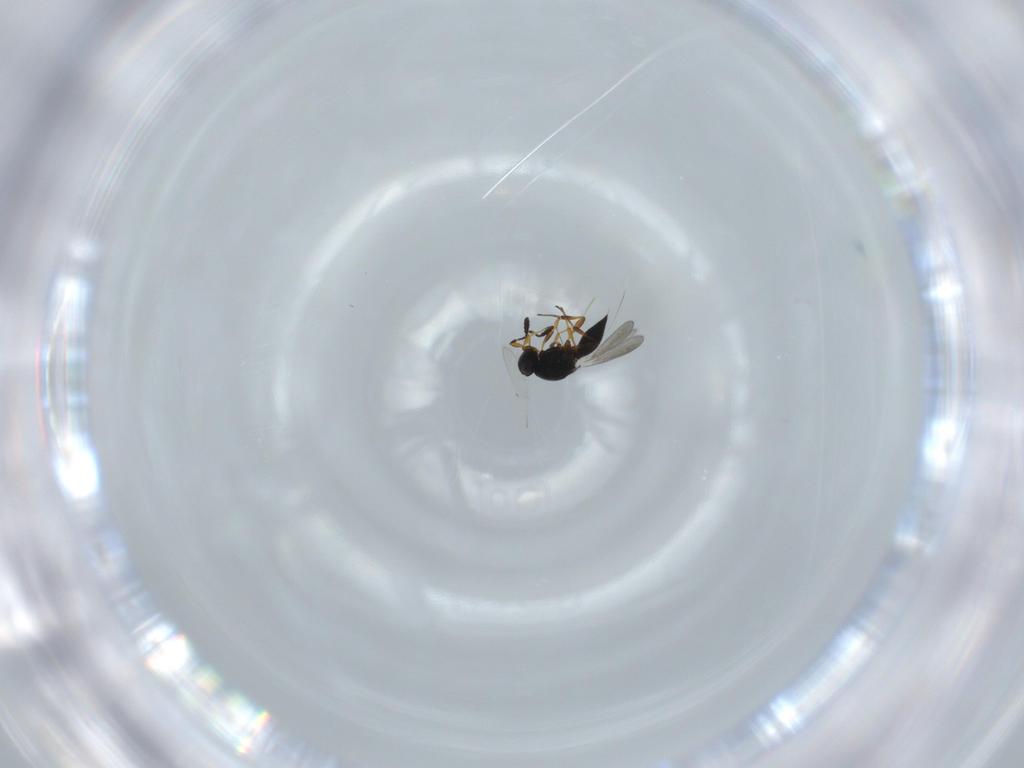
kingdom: Animalia
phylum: Arthropoda
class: Insecta
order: Hymenoptera
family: Platygastridae
